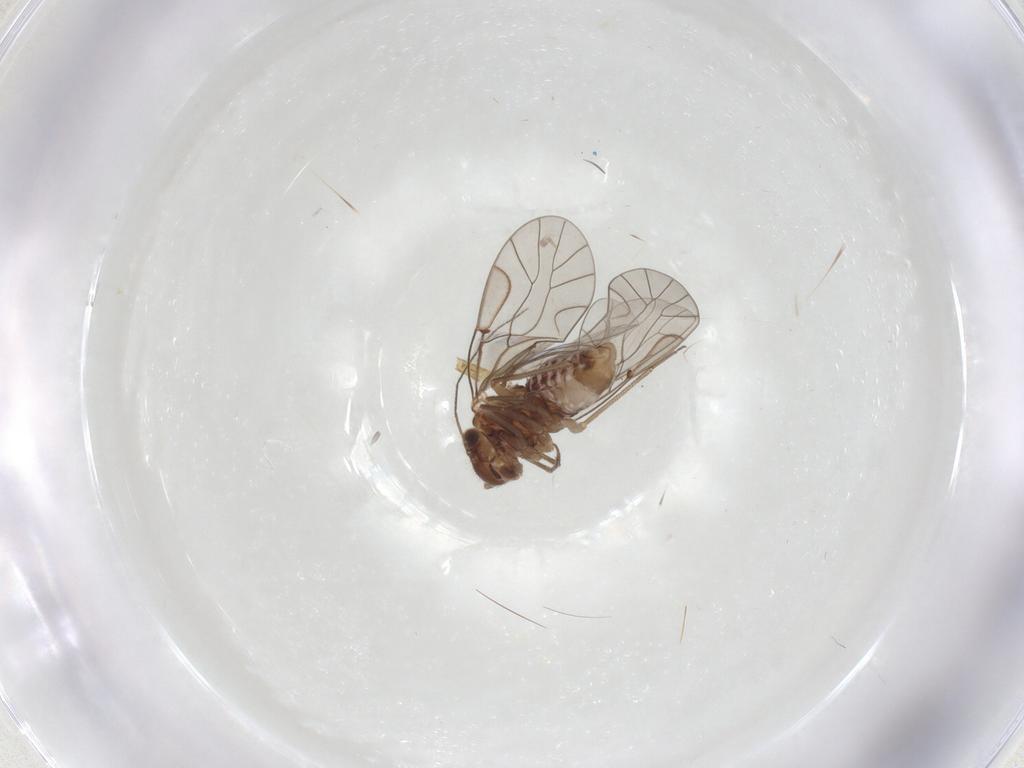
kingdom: Animalia
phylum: Arthropoda
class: Insecta
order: Psocodea
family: Lachesillidae
